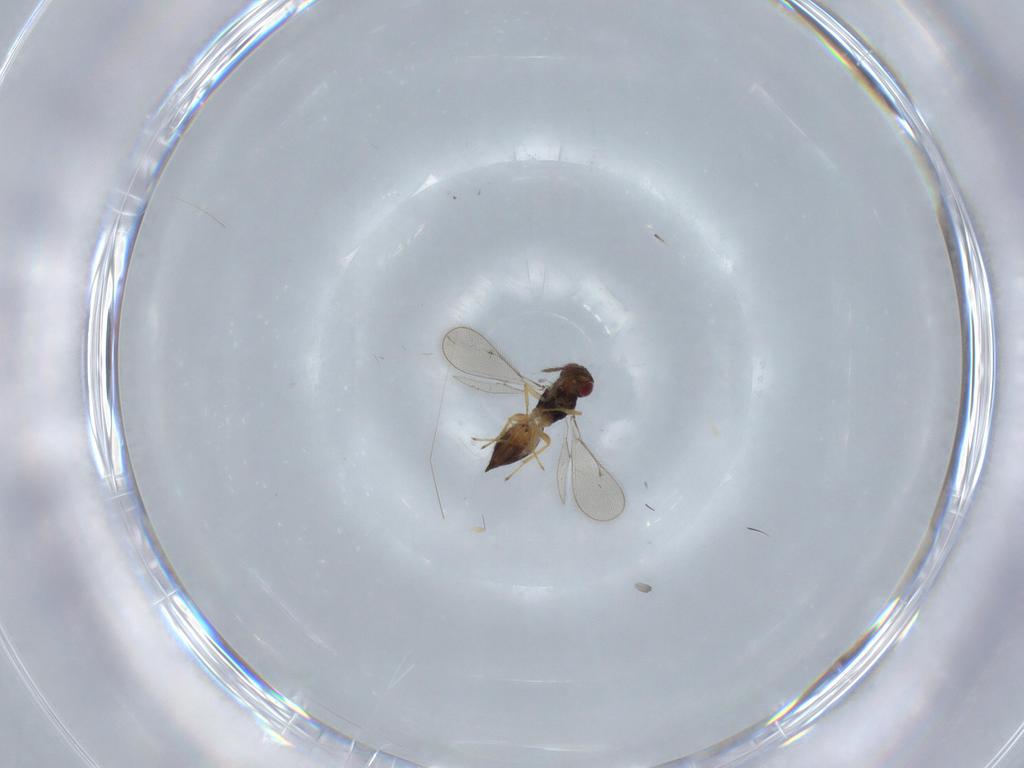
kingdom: Animalia
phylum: Arthropoda
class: Insecta
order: Hymenoptera
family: Eulophidae
